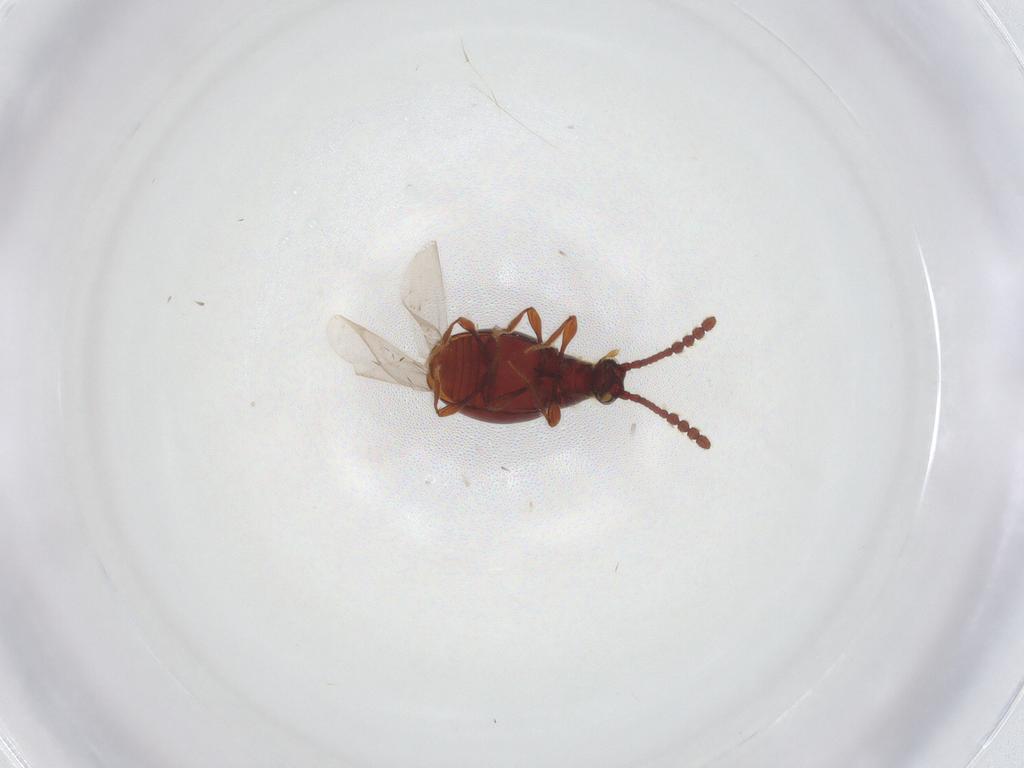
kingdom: Animalia
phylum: Arthropoda
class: Insecta
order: Coleoptera
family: Staphylinidae
